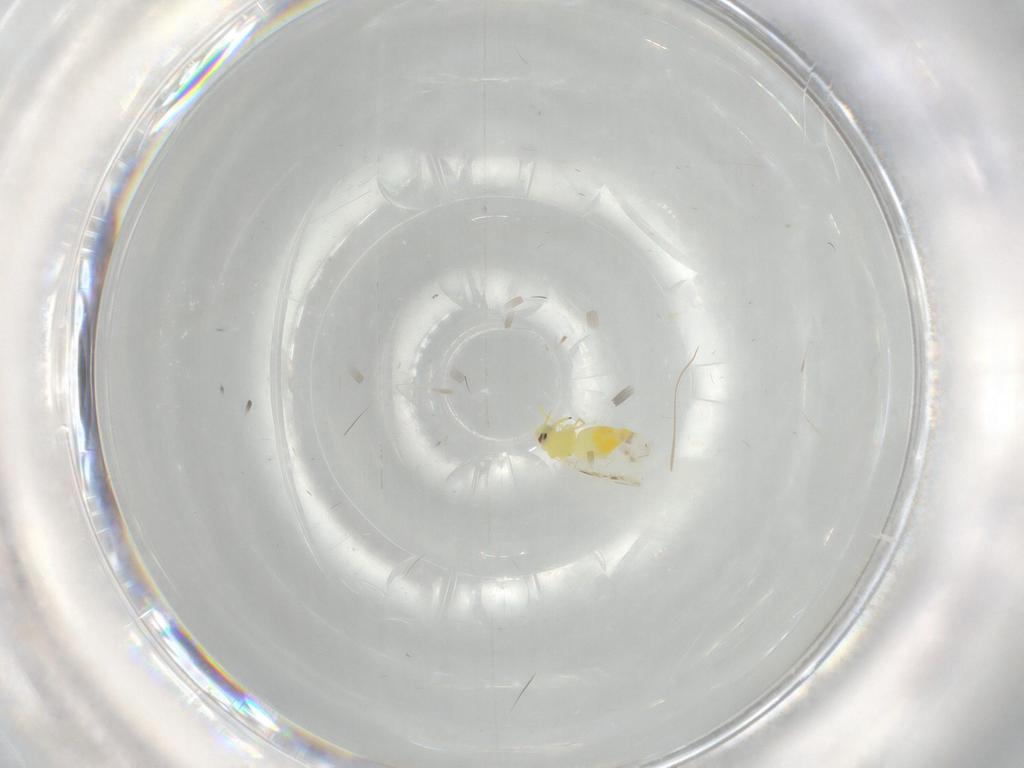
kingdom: Animalia
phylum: Arthropoda
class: Insecta
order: Hemiptera
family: Aleyrodidae
